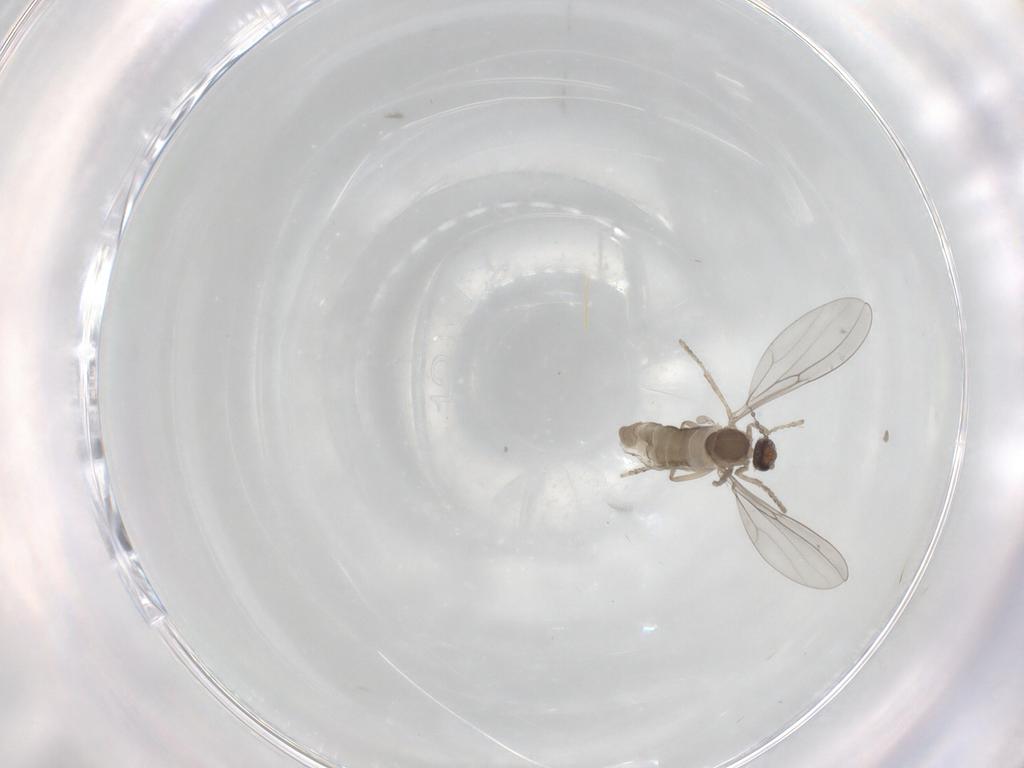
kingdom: Animalia
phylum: Arthropoda
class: Insecta
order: Diptera
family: Cecidomyiidae
